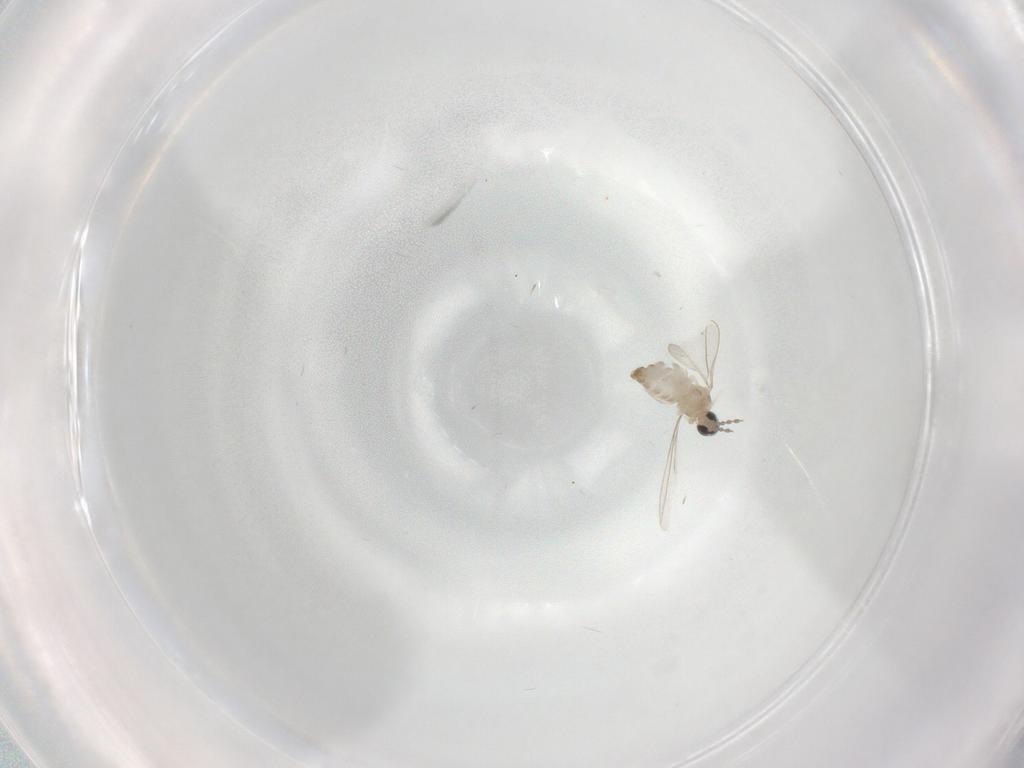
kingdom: Animalia
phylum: Arthropoda
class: Insecta
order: Diptera
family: Cecidomyiidae
